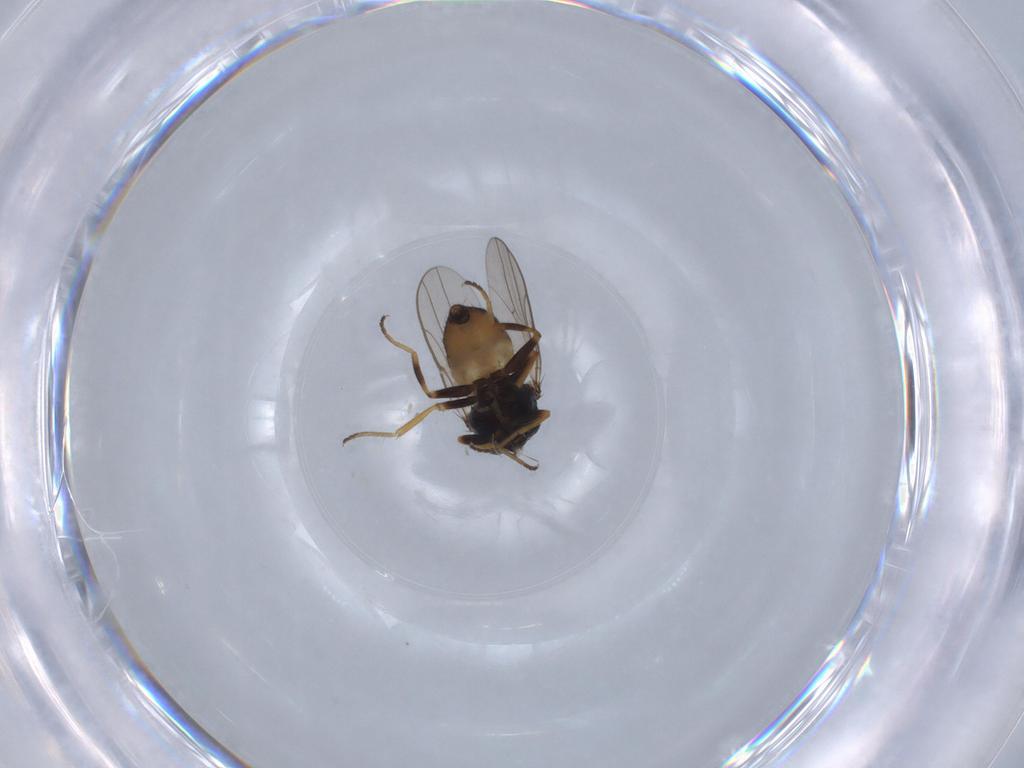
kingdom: Animalia
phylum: Arthropoda
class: Insecta
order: Diptera
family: Chloropidae
